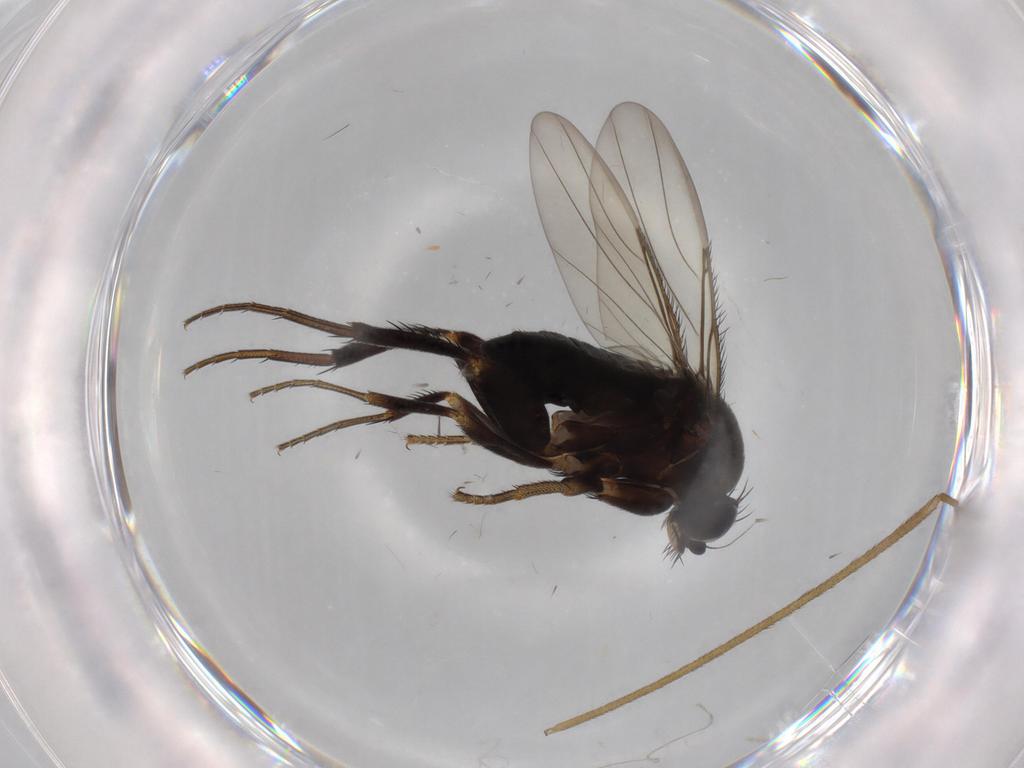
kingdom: Animalia
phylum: Arthropoda
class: Insecta
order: Diptera
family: Phoridae
